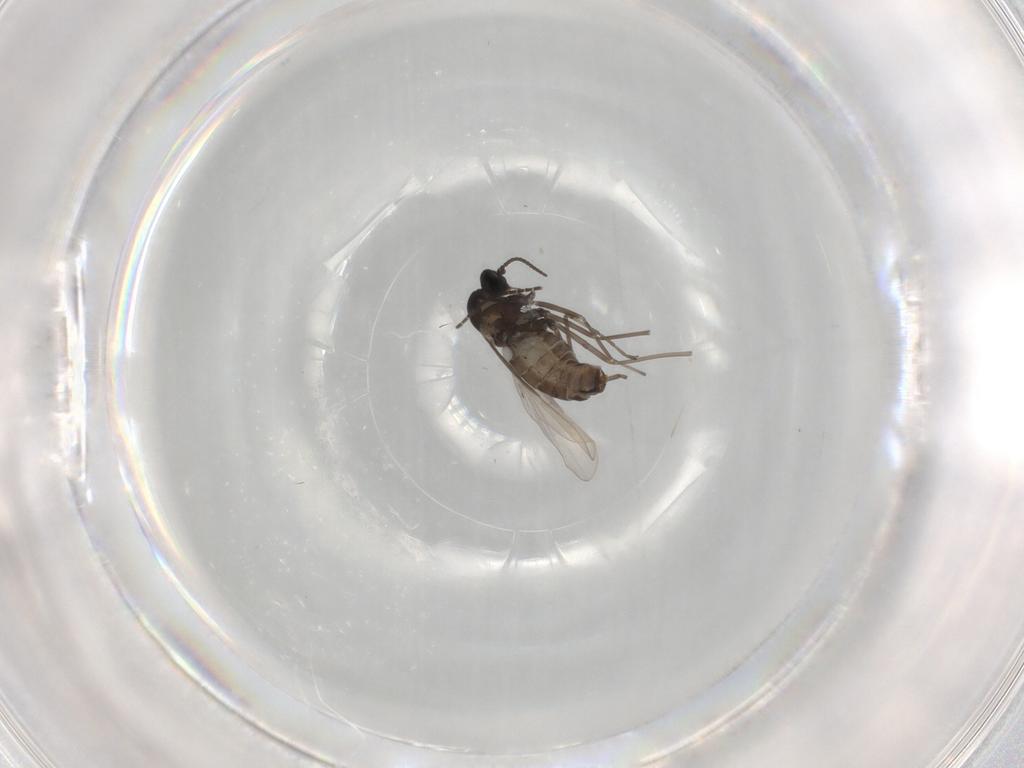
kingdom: Animalia
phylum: Arthropoda
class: Insecta
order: Diptera
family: Cecidomyiidae
